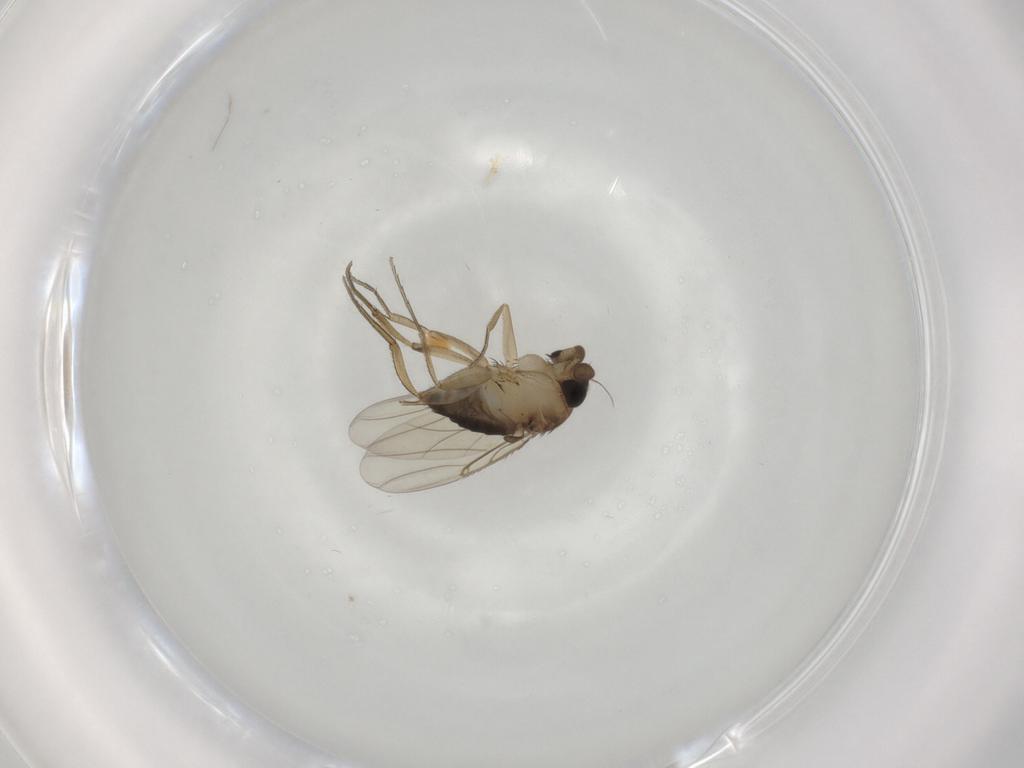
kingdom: Animalia
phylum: Arthropoda
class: Insecta
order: Diptera
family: Phoridae
